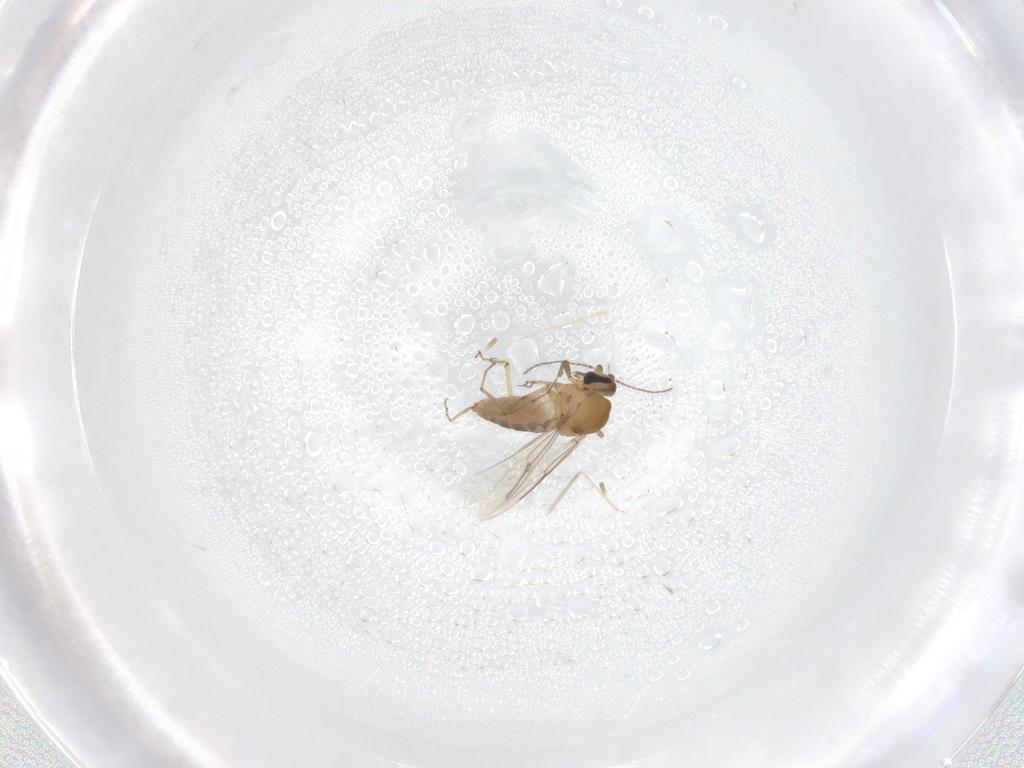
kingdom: Animalia
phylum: Arthropoda
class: Insecta
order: Diptera
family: Cecidomyiidae
